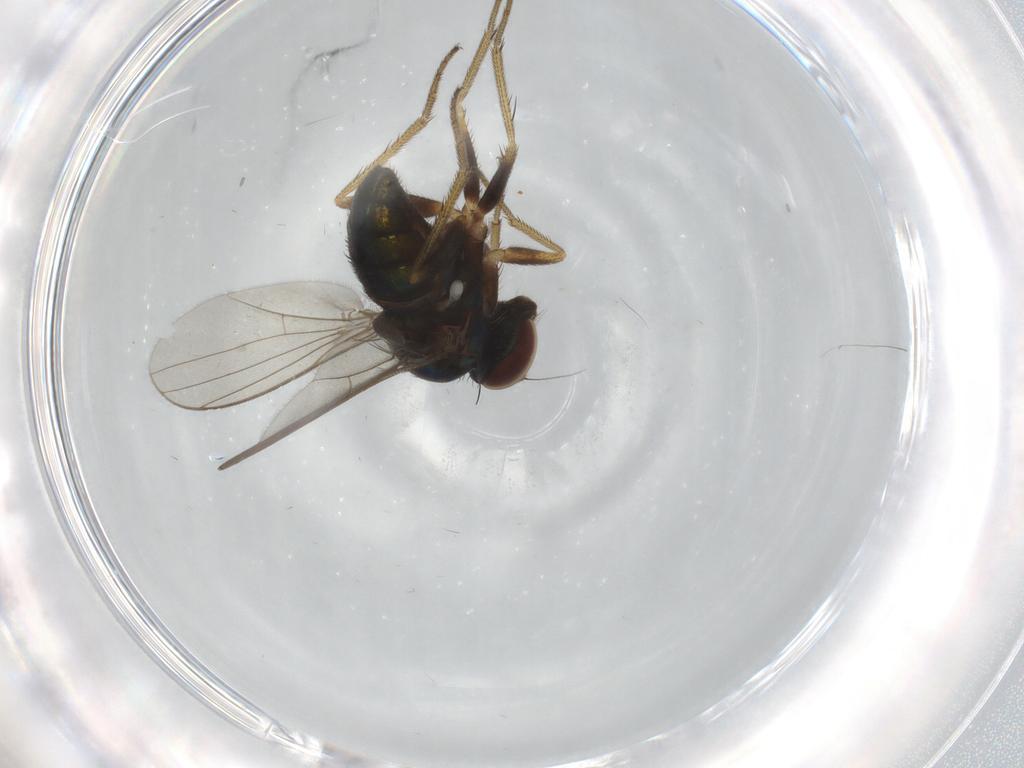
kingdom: Animalia
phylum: Arthropoda
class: Insecta
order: Diptera
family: Dolichopodidae
